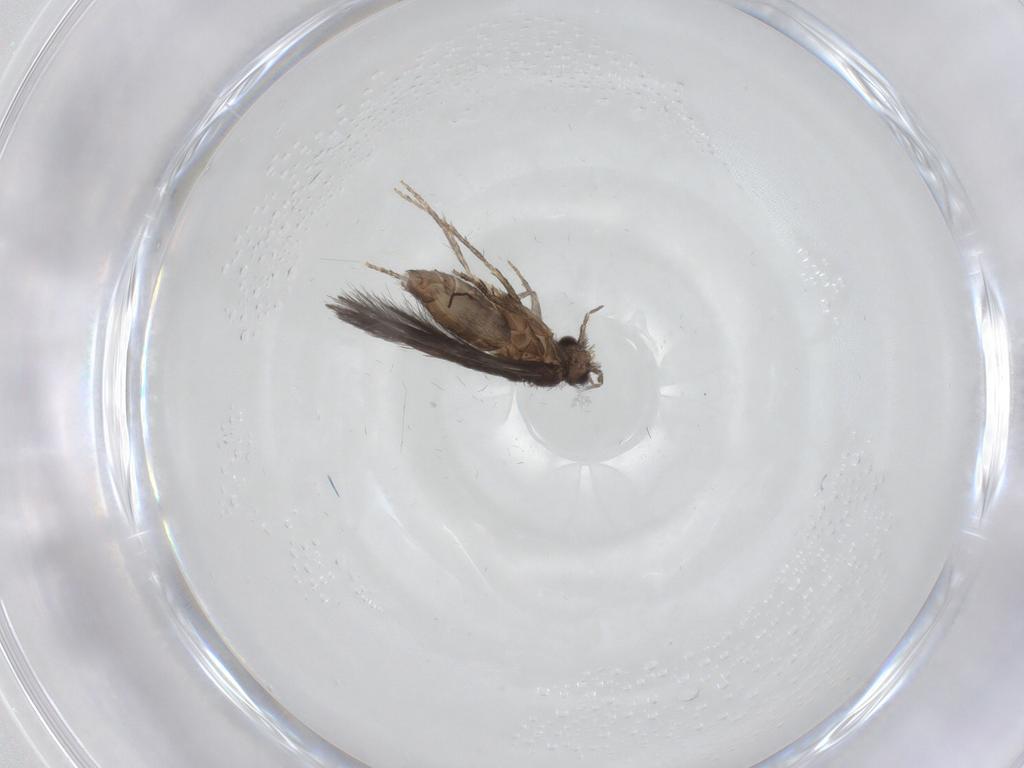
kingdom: Animalia
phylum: Arthropoda
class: Insecta
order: Trichoptera
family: Hydroptilidae
